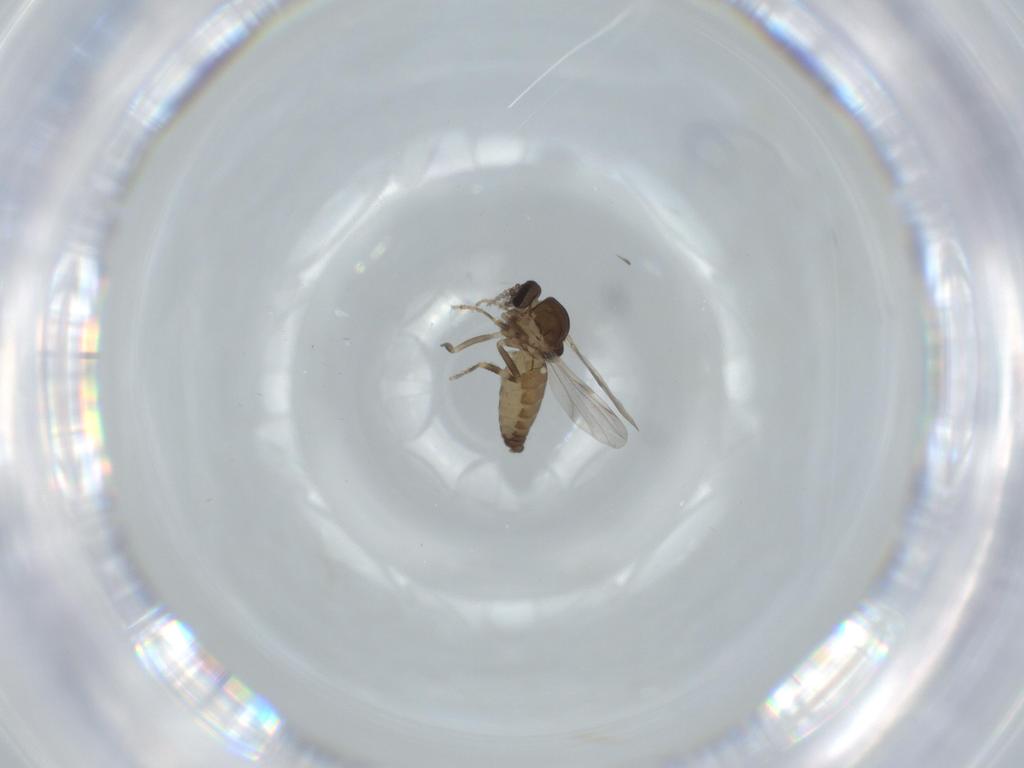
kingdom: Animalia
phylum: Arthropoda
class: Insecta
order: Diptera
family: Ceratopogonidae
